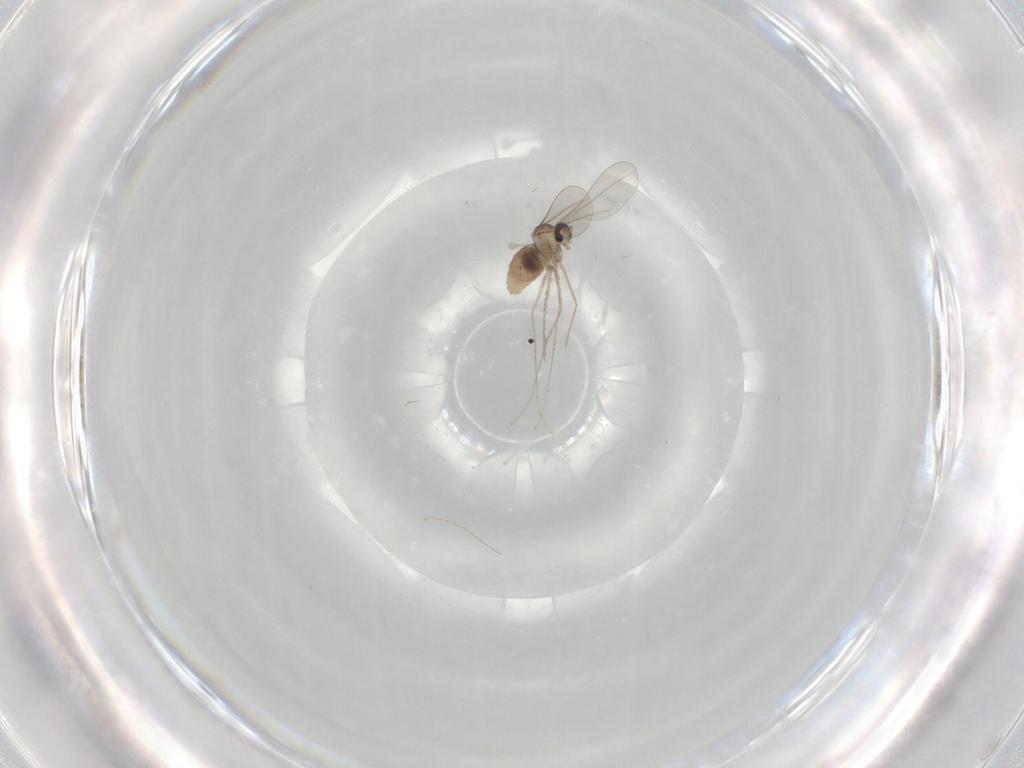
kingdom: Animalia
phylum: Arthropoda
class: Insecta
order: Diptera
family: Cecidomyiidae
